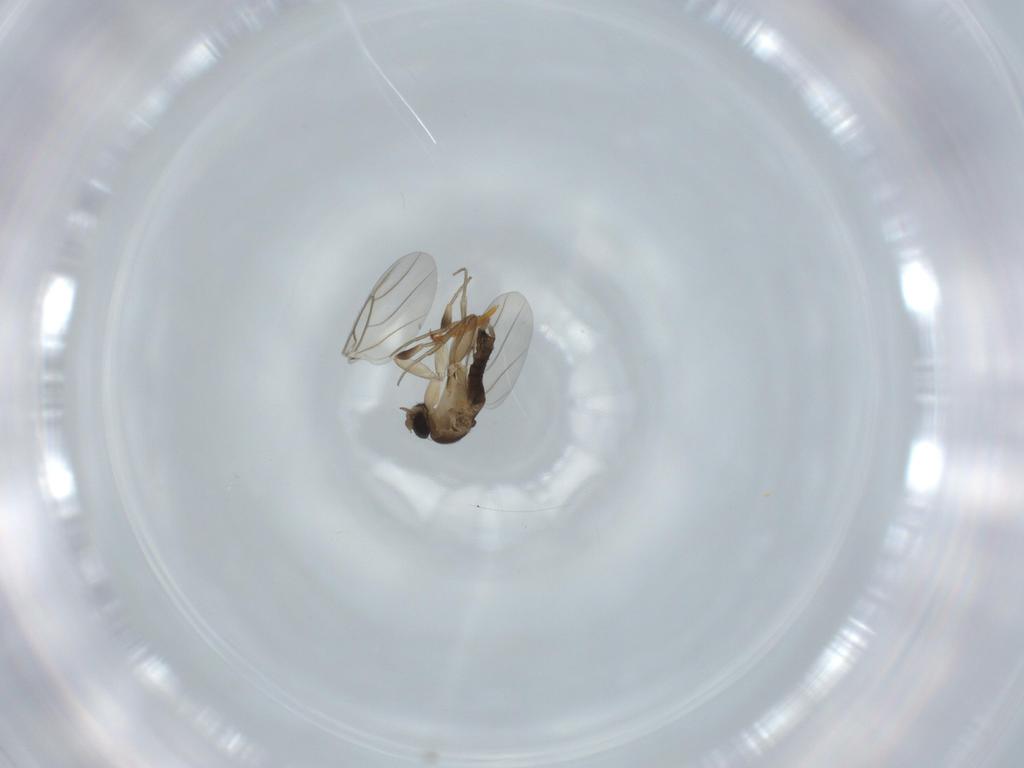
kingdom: Animalia
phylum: Arthropoda
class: Insecta
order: Diptera
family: Phoridae
